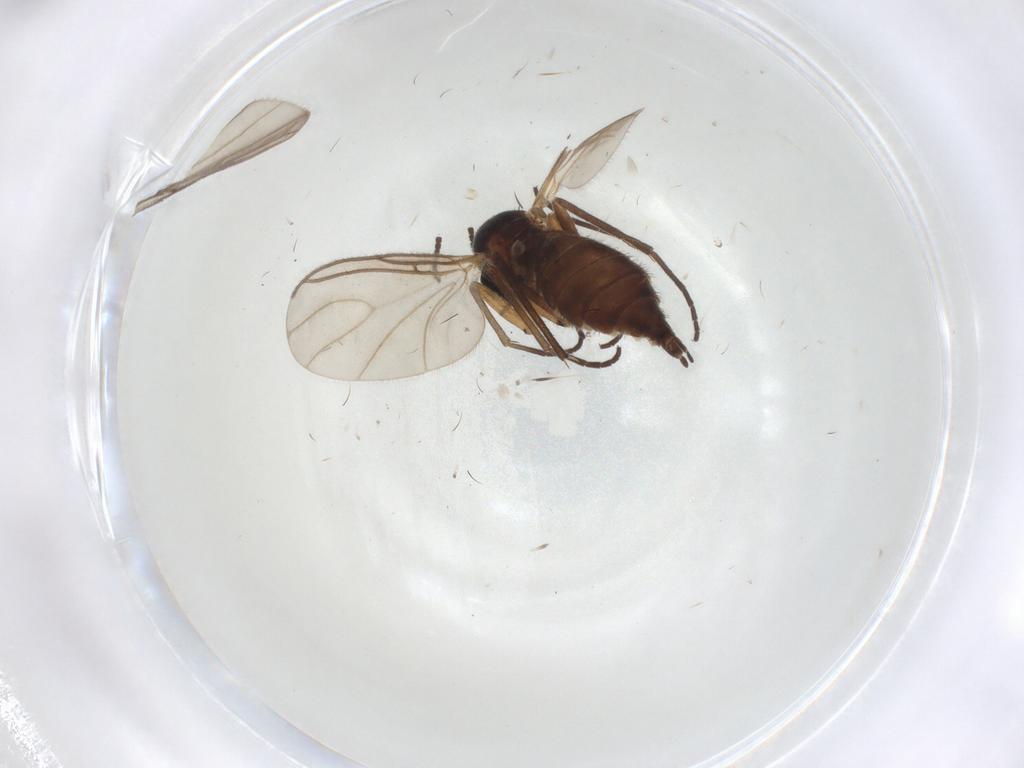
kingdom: Animalia
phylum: Arthropoda
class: Insecta
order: Diptera
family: Sciaridae
